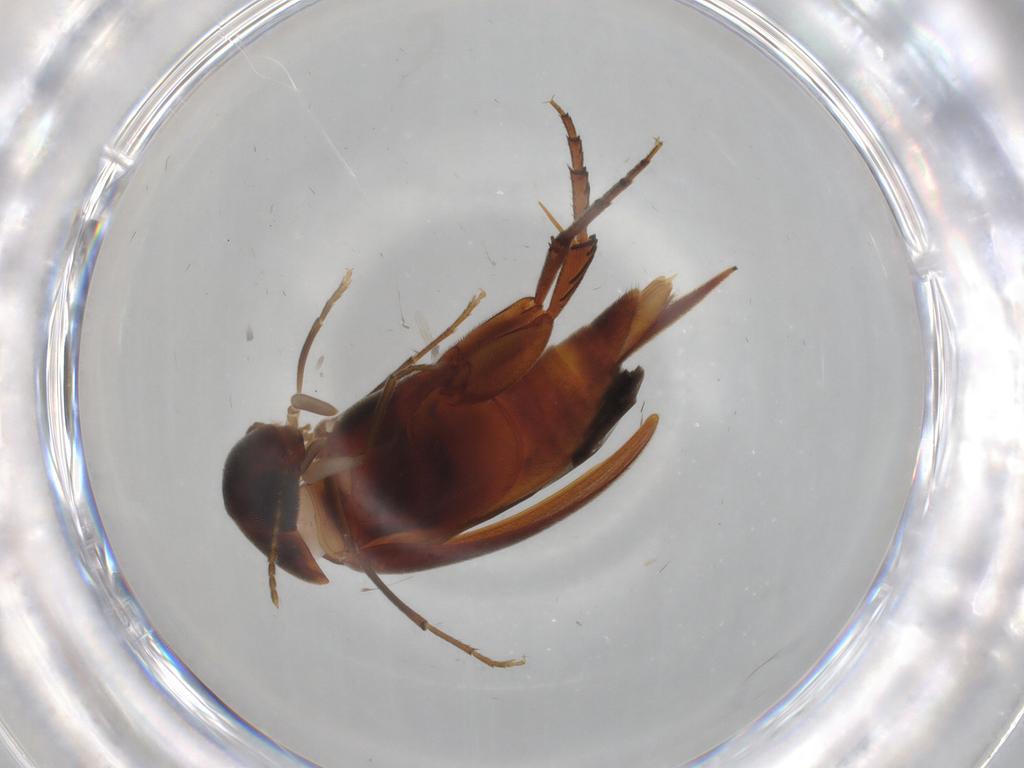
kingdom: Animalia
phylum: Arthropoda
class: Insecta
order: Coleoptera
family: Mordellidae
